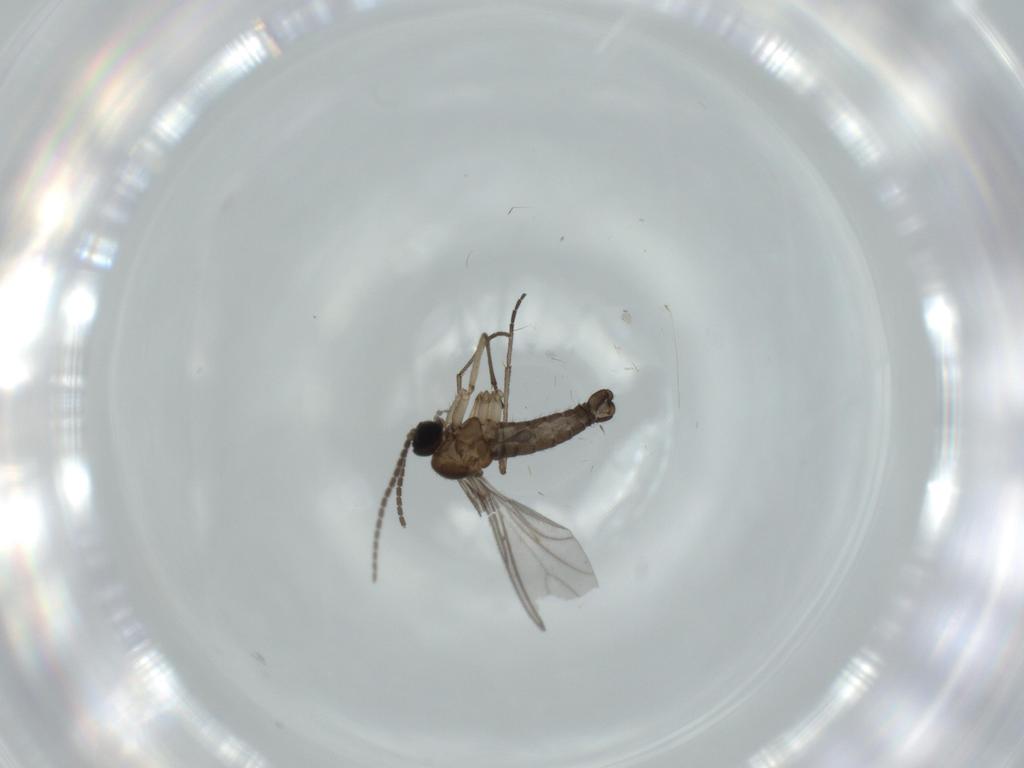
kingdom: Animalia
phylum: Arthropoda
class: Insecta
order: Diptera
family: Sciaridae
